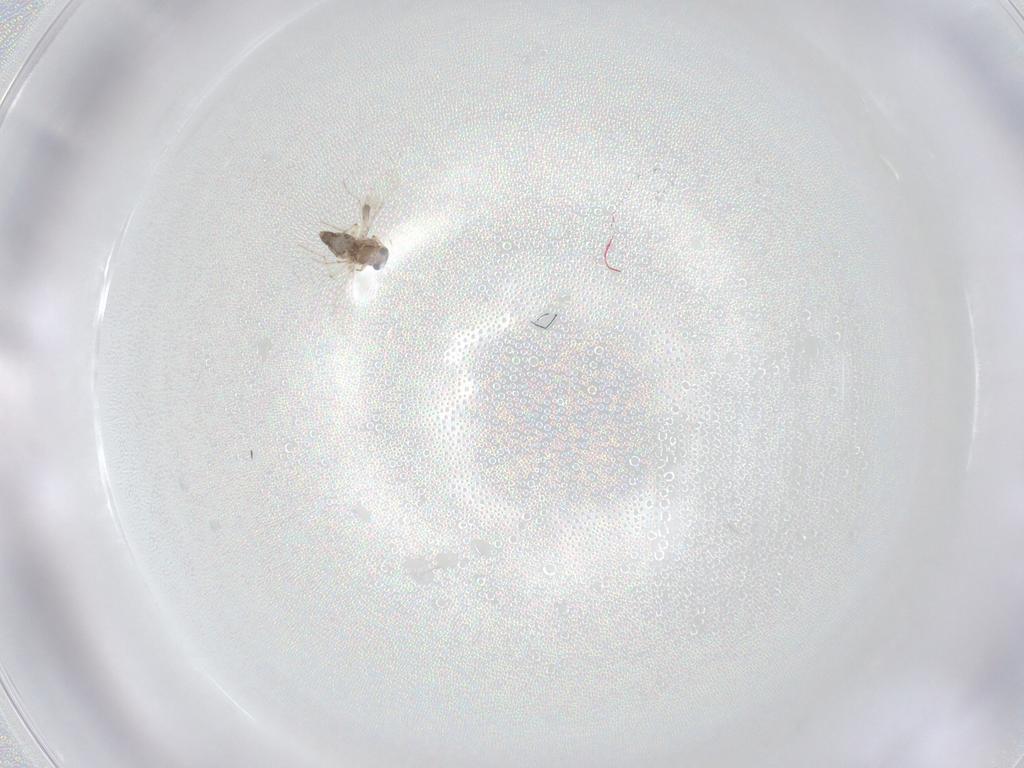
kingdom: Animalia
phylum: Arthropoda
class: Insecta
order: Diptera
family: Chironomidae
